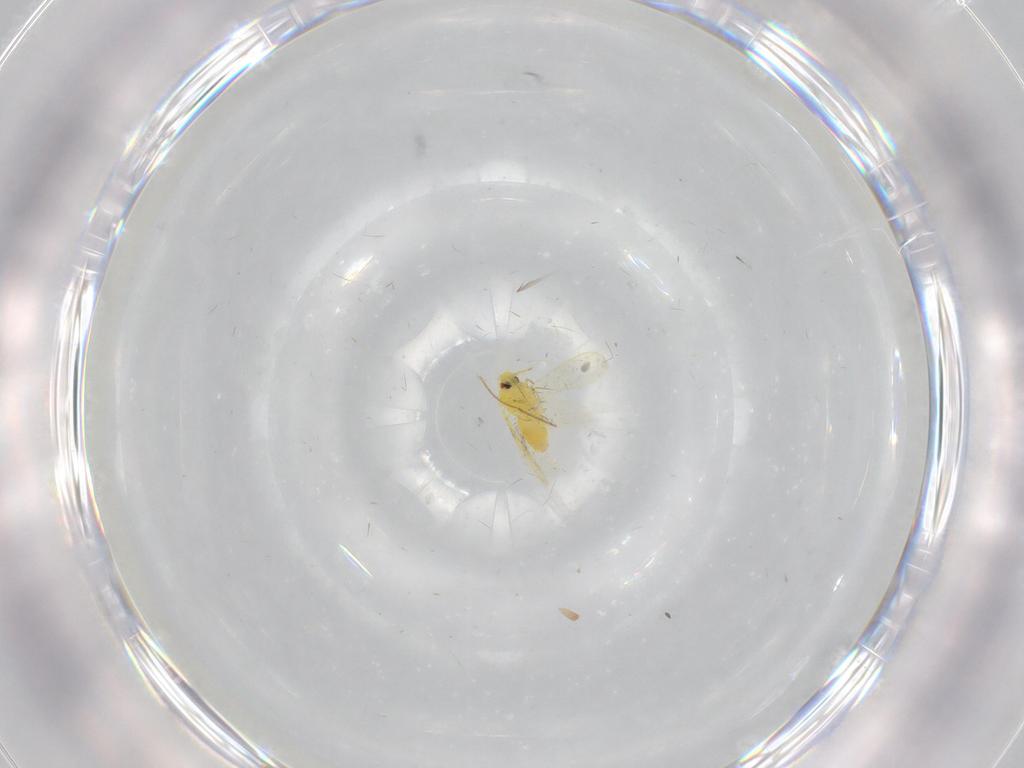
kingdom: Animalia
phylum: Arthropoda
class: Insecta
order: Hemiptera
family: Aleyrodidae
